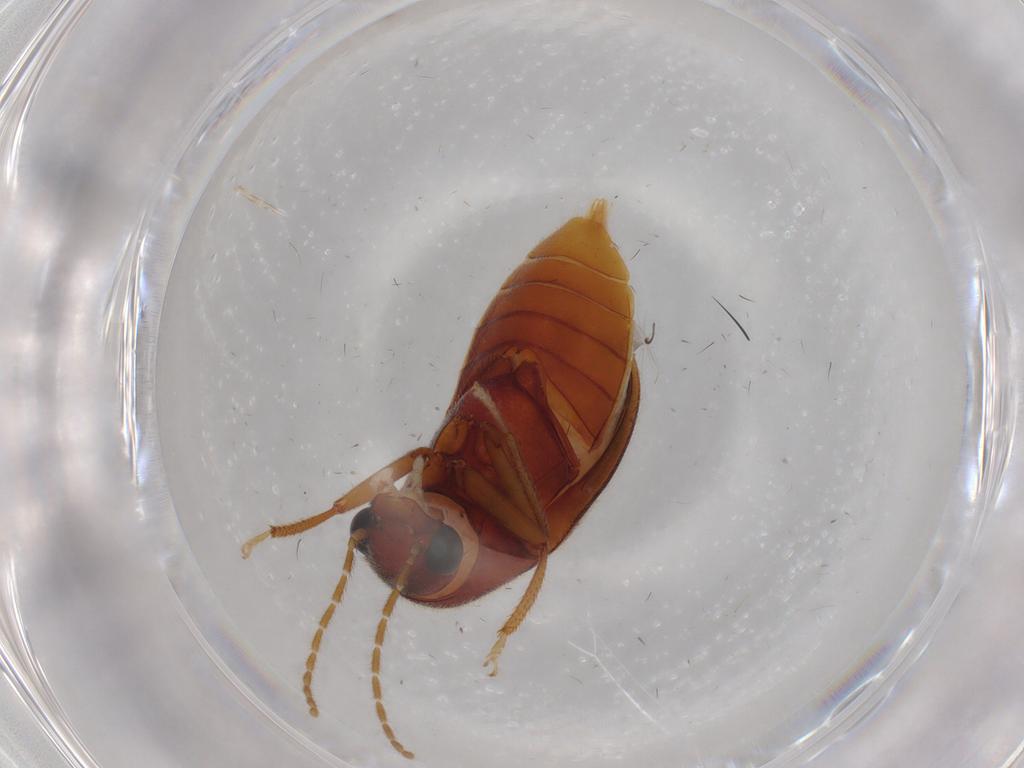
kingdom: Animalia
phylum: Arthropoda
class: Insecta
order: Coleoptera
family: Ptilodactylidae
